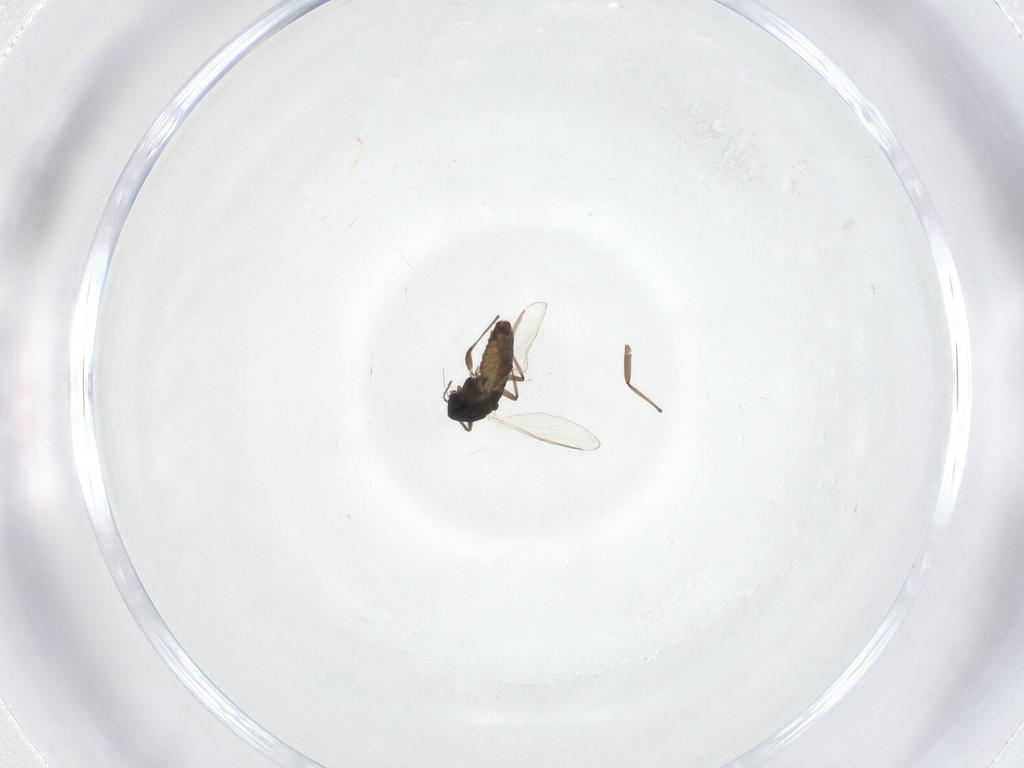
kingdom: Animalia
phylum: Arthropoda
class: Insecta
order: Diptera
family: Chironomidae
